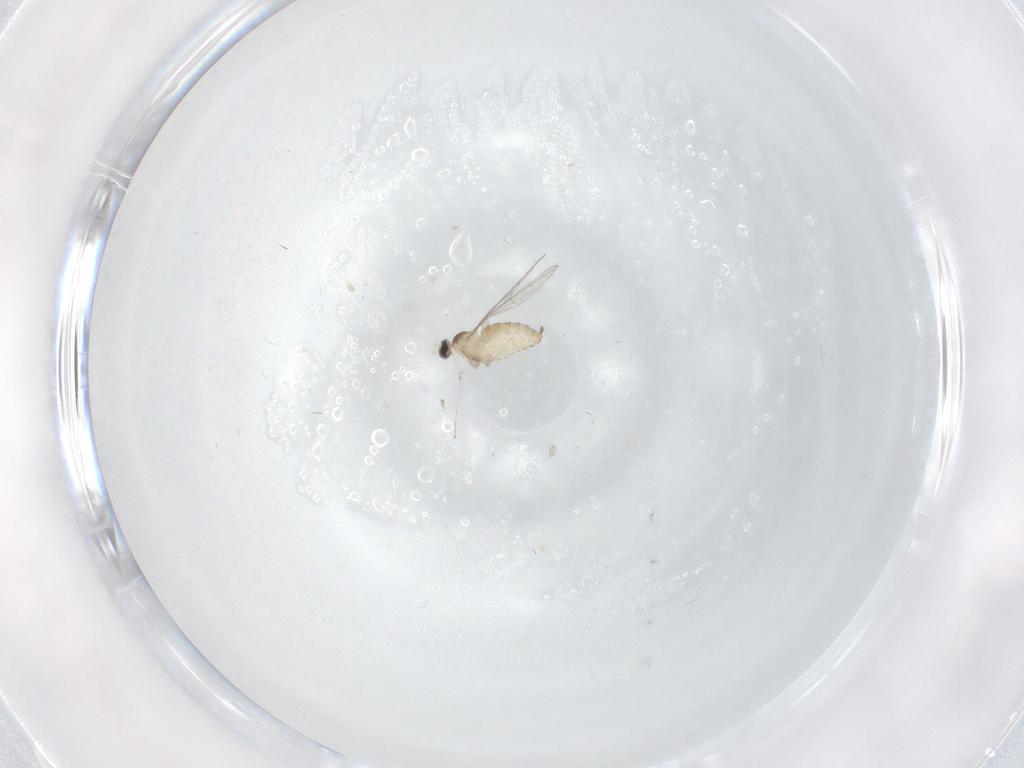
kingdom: Animalia
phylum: Arthropoda
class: Insecta
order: Diptera
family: Cecidomyiidae
